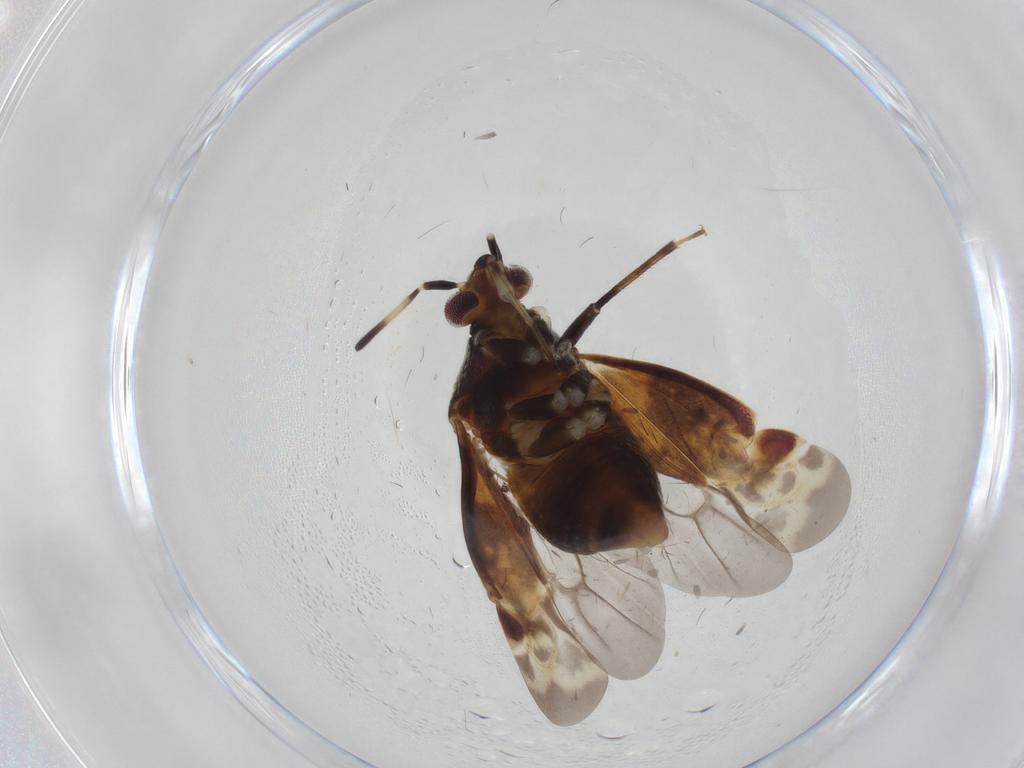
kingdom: Animalia
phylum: Arthropoda
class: Insecta
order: Hemiptera
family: Miridae
